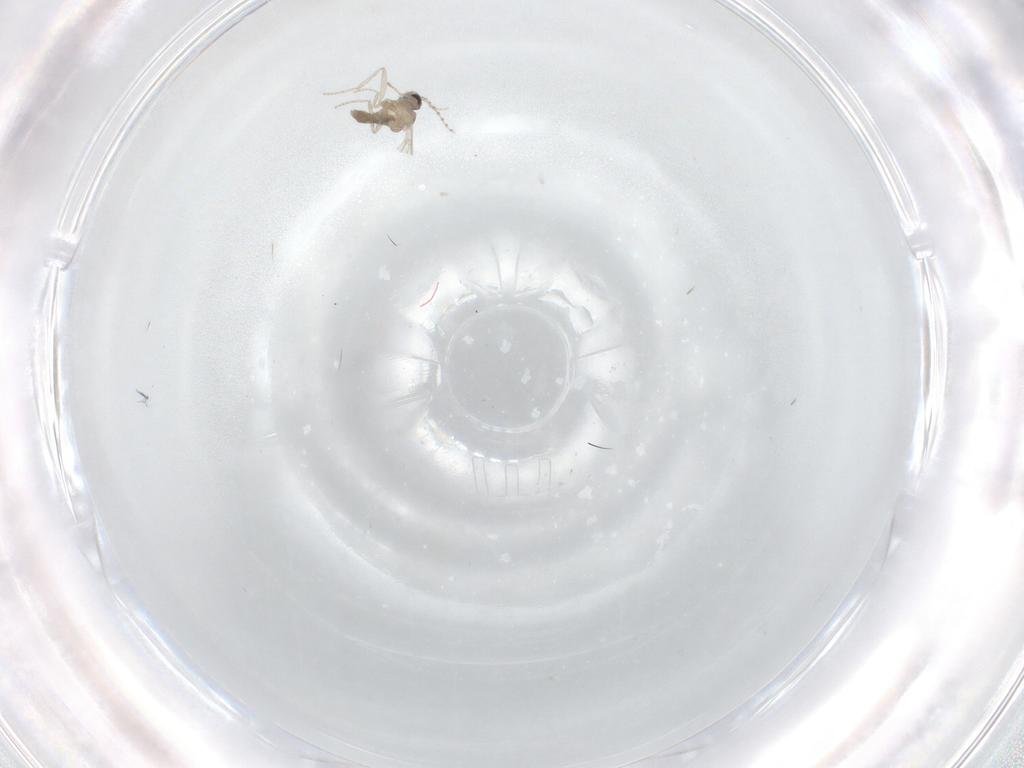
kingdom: Animalia
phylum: Arthropoda
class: Insecta
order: Diptera
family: Cecidomyiidae
